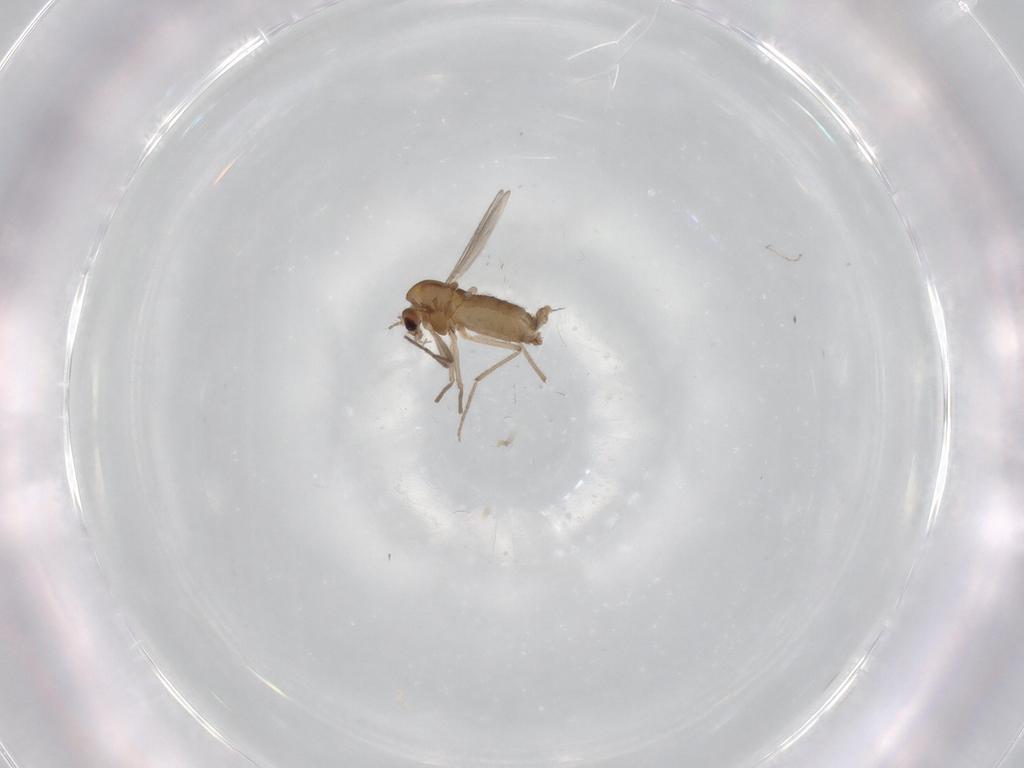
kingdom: Animalia
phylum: Arthropoda
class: Insecta
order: Diptera
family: Chironomidae
